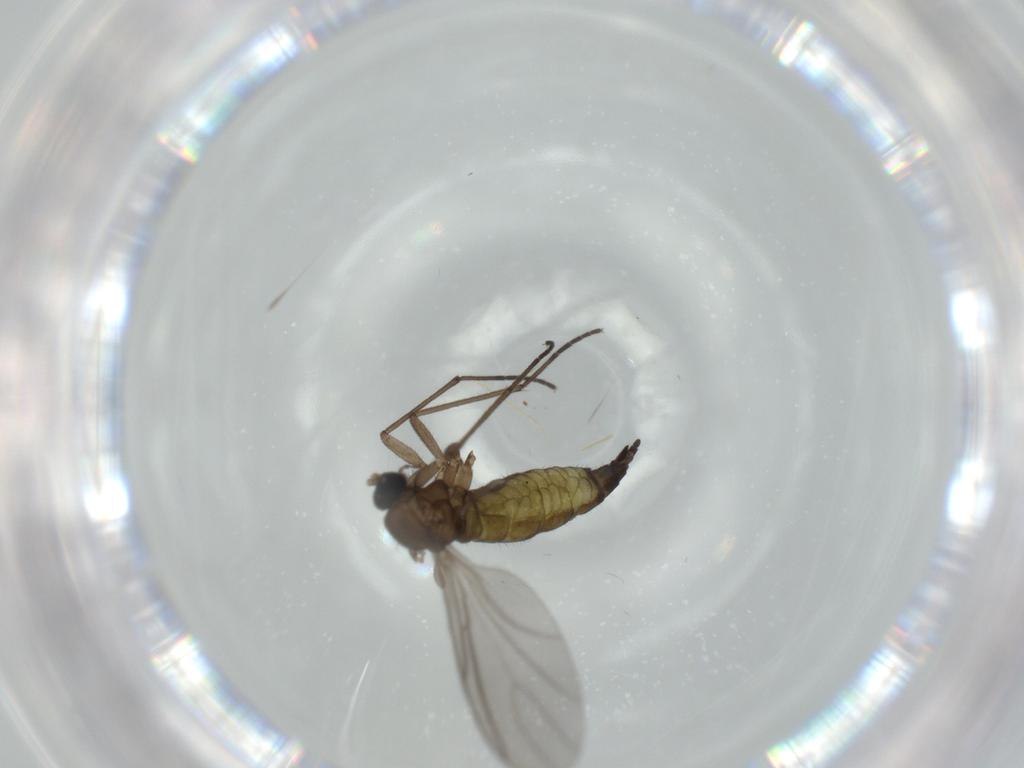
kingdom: Animalia
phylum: Arthropoda
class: Insecta
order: Diptera
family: Sciaridae
